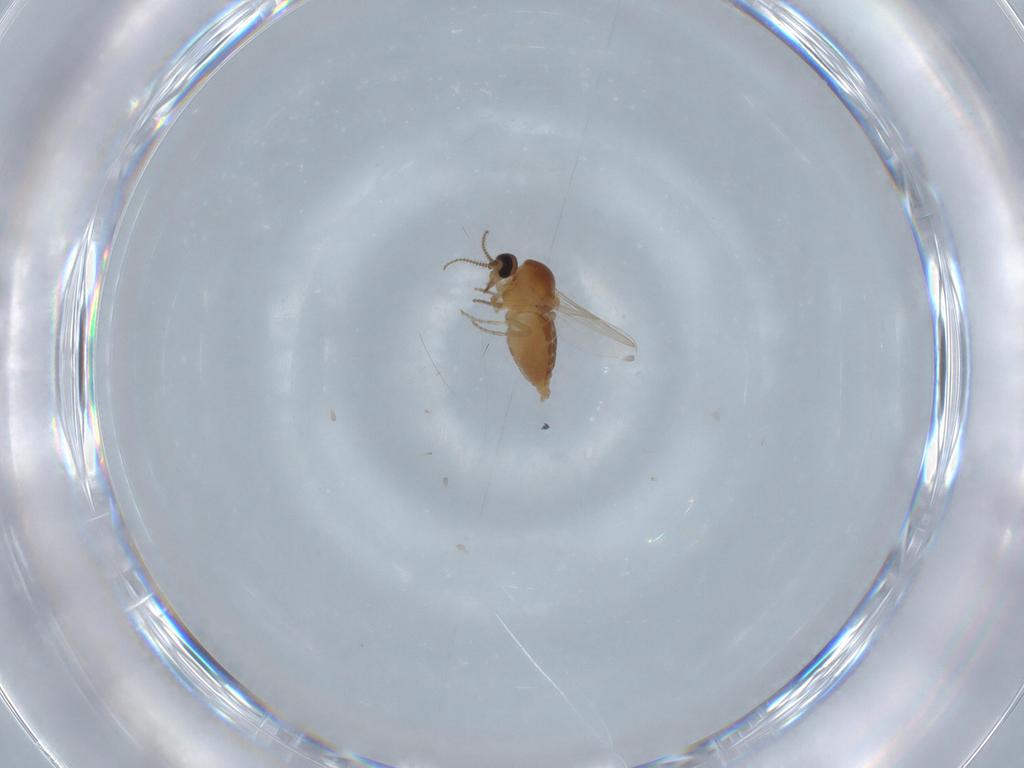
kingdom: Animalia
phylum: Arthropoda
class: Insecta
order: Diptera
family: Ceratopogonidae
